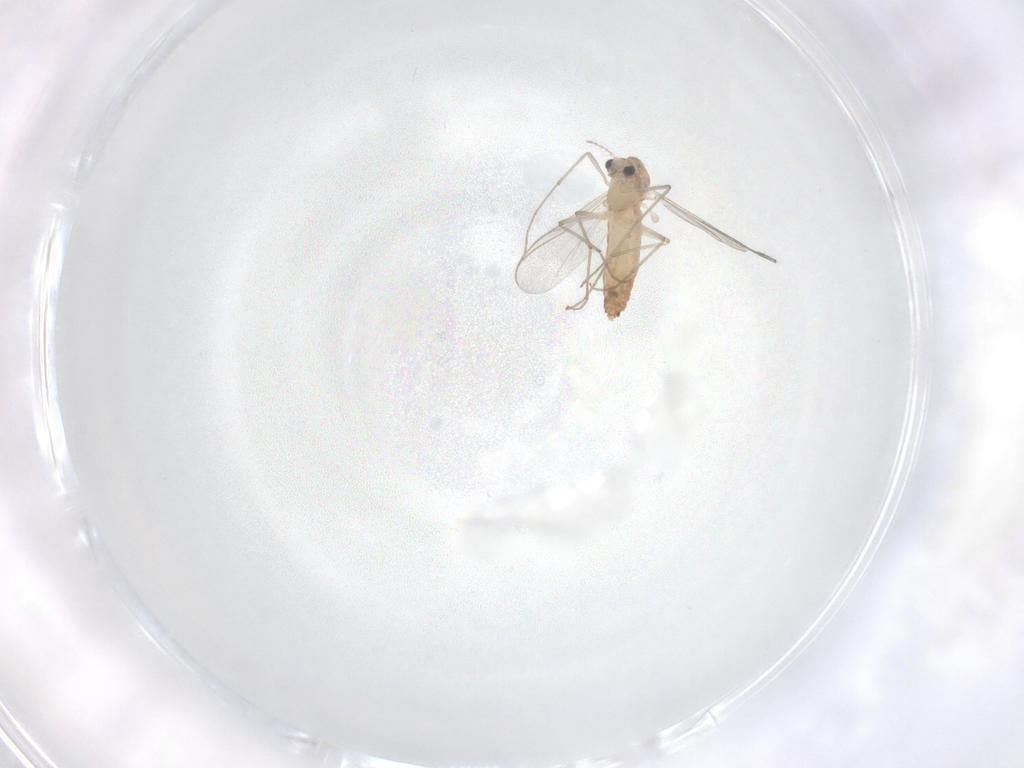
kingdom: Animalia
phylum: Arthropoda
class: Insecta
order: Diptera
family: Chironomidae
